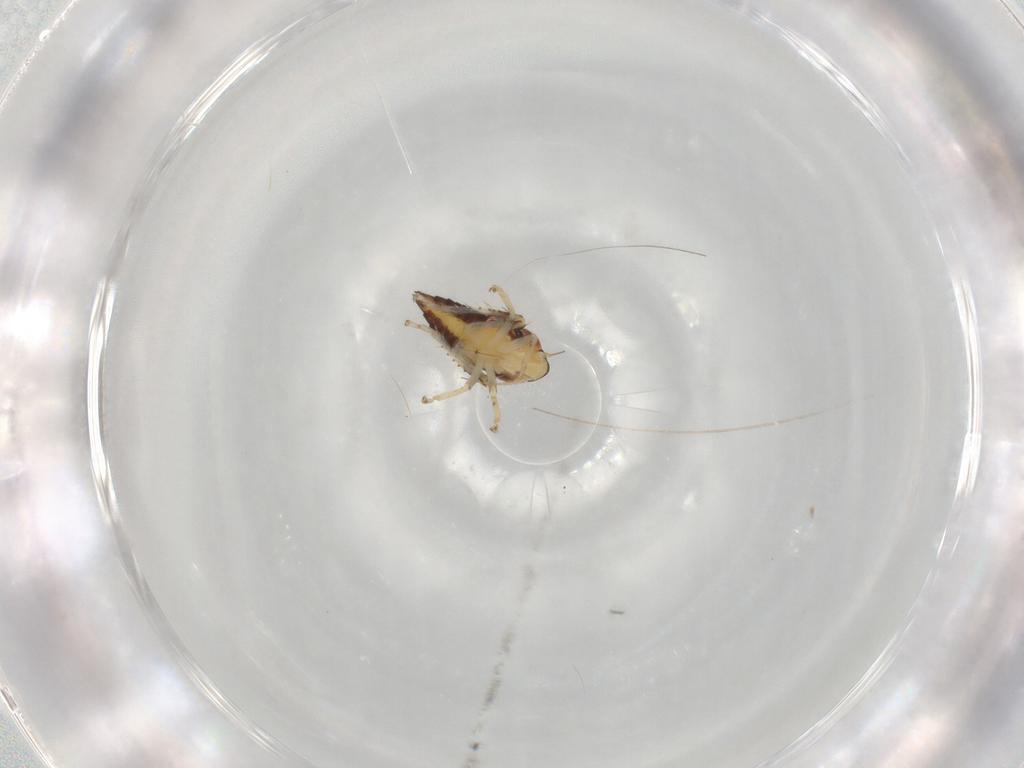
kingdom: Animalia
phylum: Arthropoda
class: Insecta
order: Hemiptera
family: Cicadellidae
